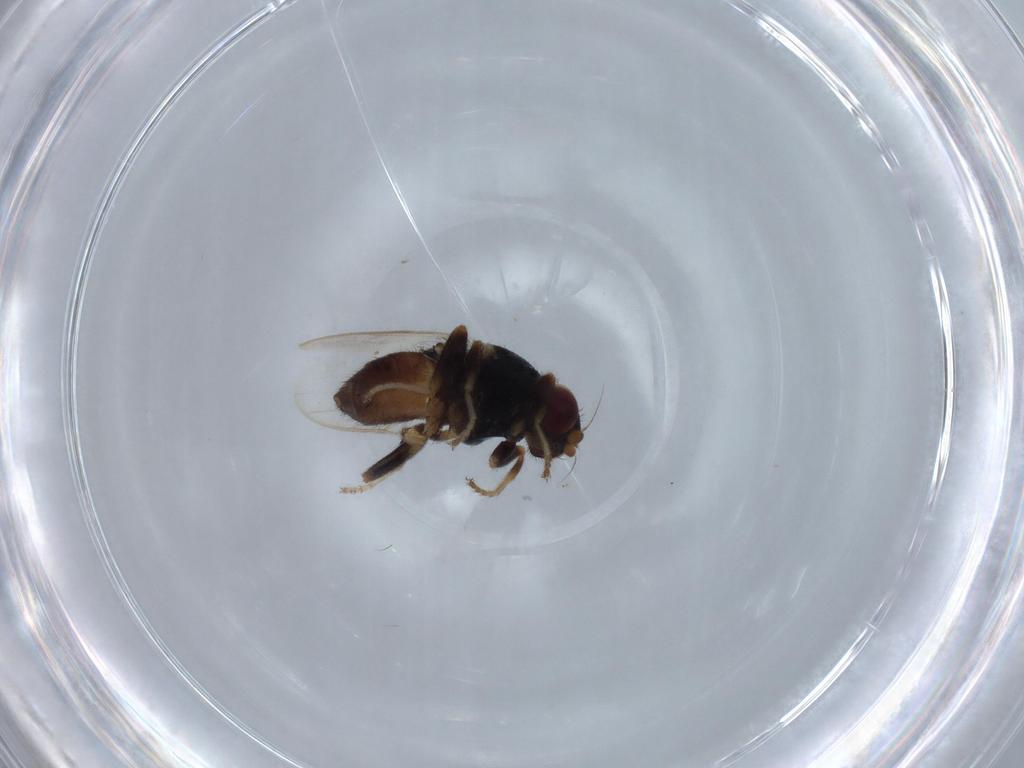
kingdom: Animalia
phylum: Arthropoda
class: Insecta
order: Diptera
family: Chloropidae
